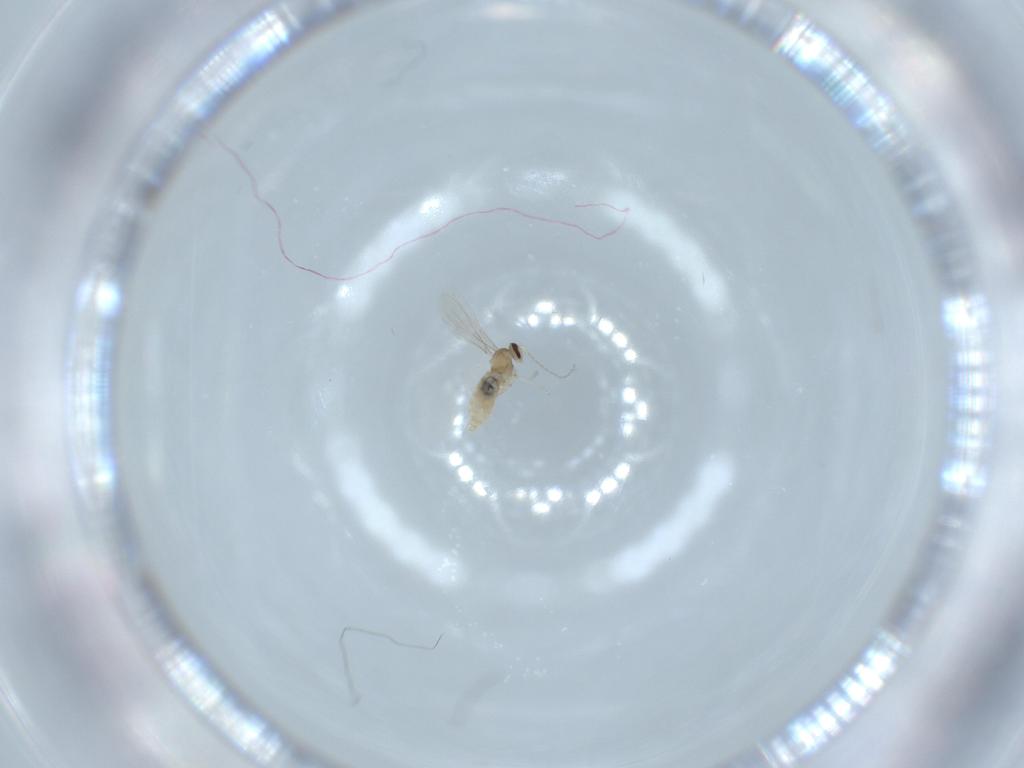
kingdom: Animalia
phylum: Arthropoda
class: Insecta
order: Diptera
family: Cecidomyiidae
